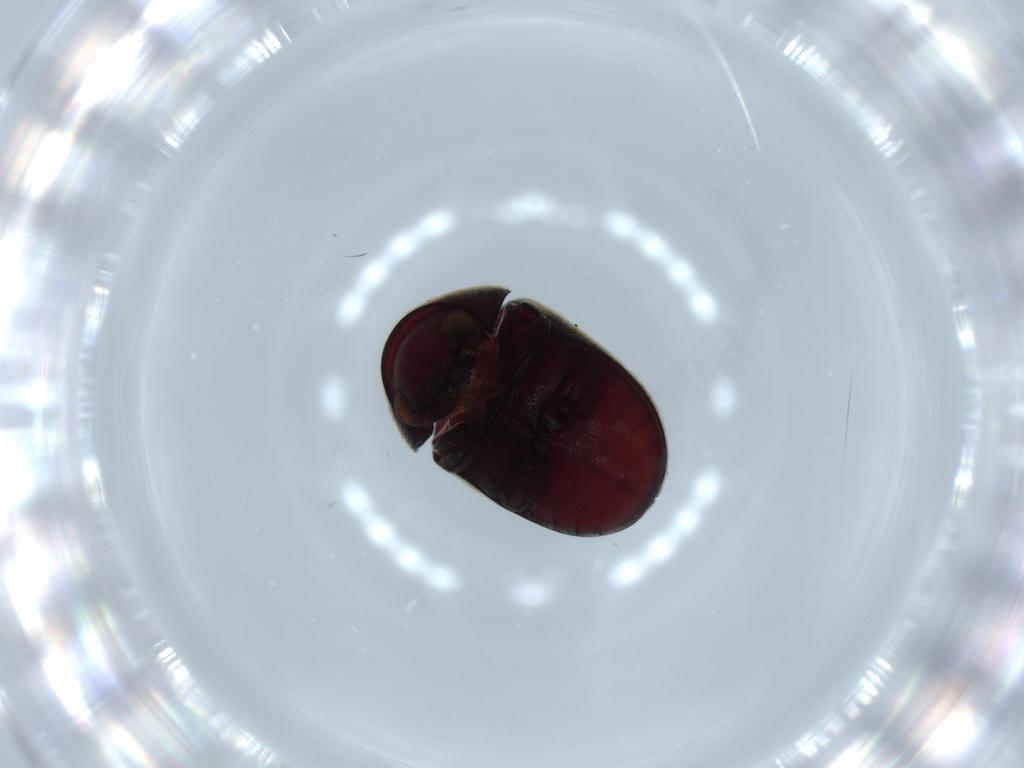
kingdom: Animalia
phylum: Arthropoda
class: Insecta
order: Coleoptera
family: Ptinidae
